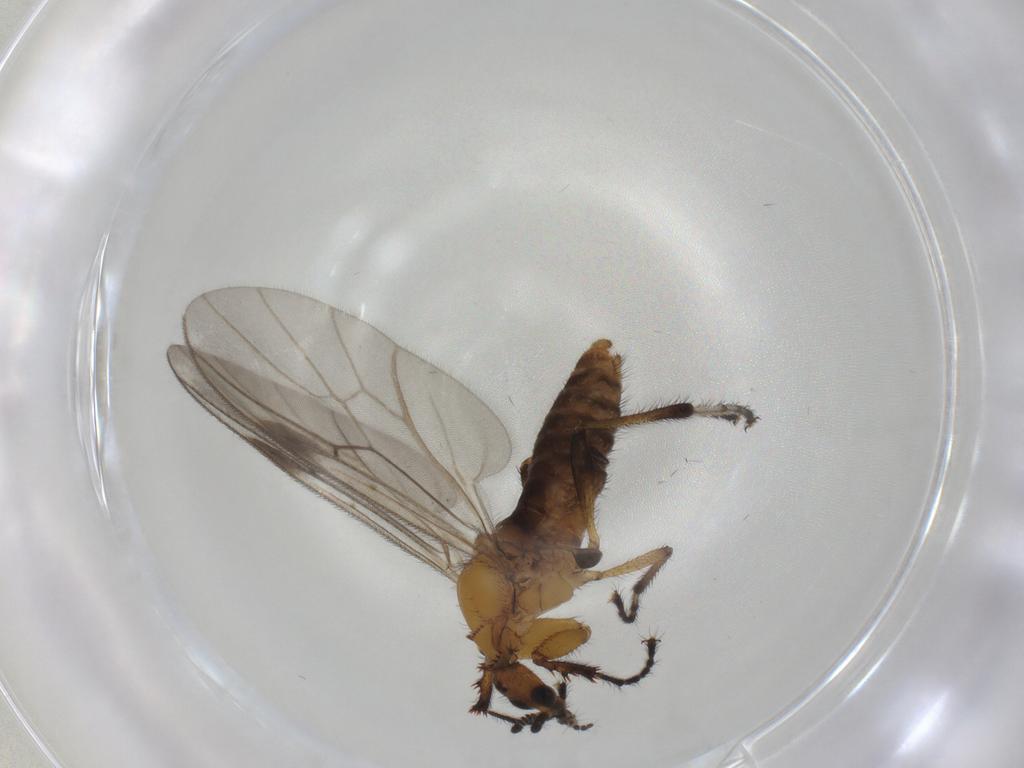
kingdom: Animalia
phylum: Arthropoda
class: Insecta
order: Diptera
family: Bibionidae
